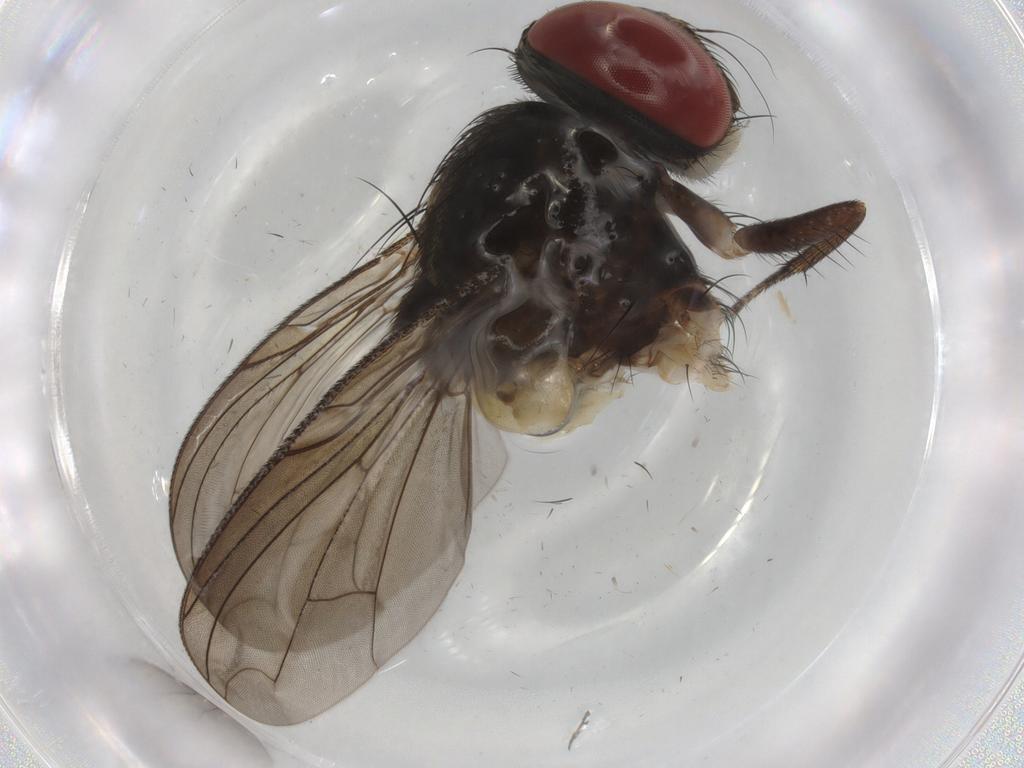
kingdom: Animalia
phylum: Arthropoda
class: Insecta
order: Diptera
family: Sarcophagidae
